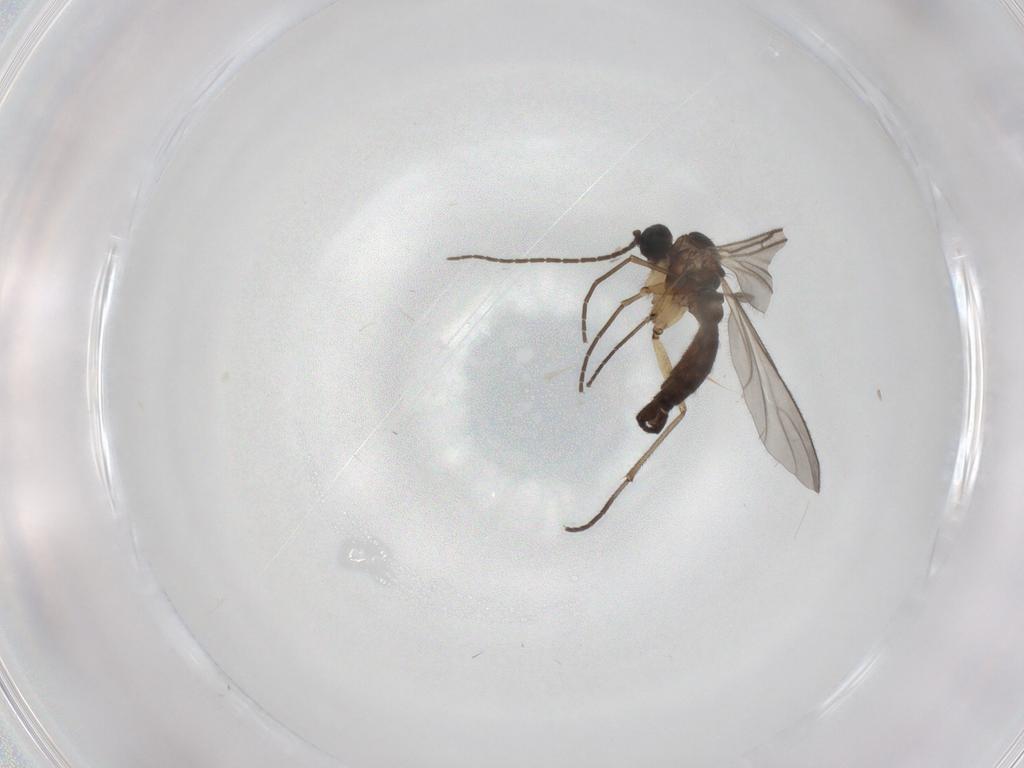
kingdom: Animalia
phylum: Arthropoda
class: Insecta
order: Diptera
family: Sciaridae
